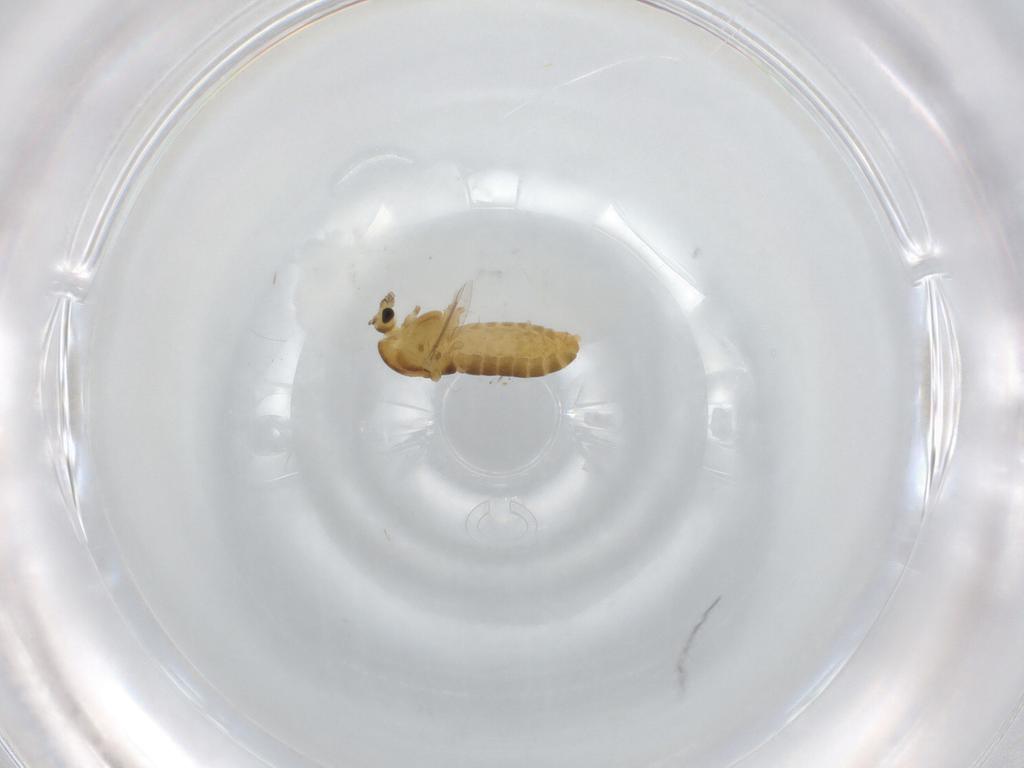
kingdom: Animalia
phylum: Arthropoda
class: Insecta
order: Diptera
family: Chironomidae
